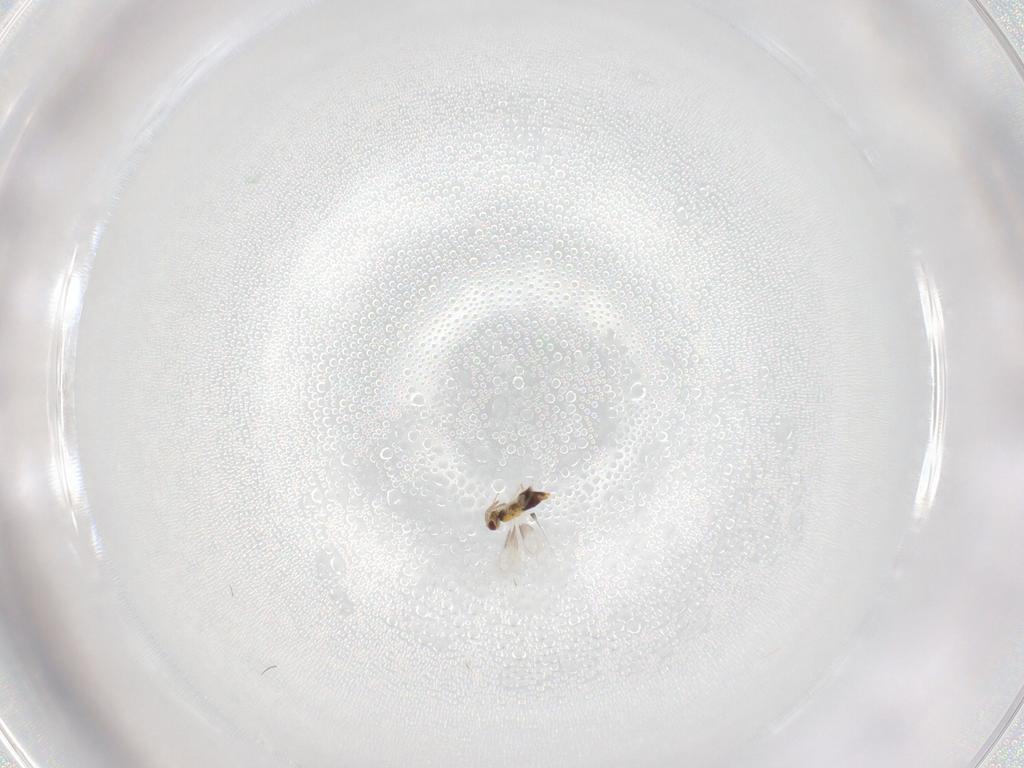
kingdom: Animalia
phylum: Arthropoda
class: Insecta
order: Hymenoptera
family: Aphelinidae
